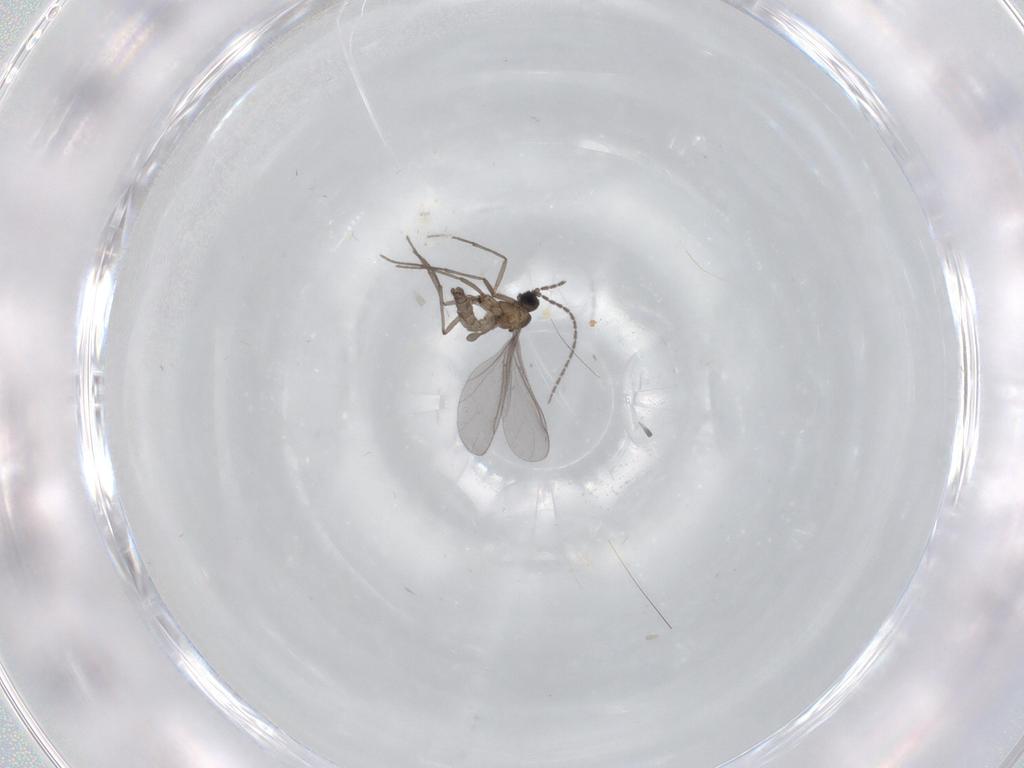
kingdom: Animalia
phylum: Arthropoda
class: Insecta
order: Diptera
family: Sciaridae
